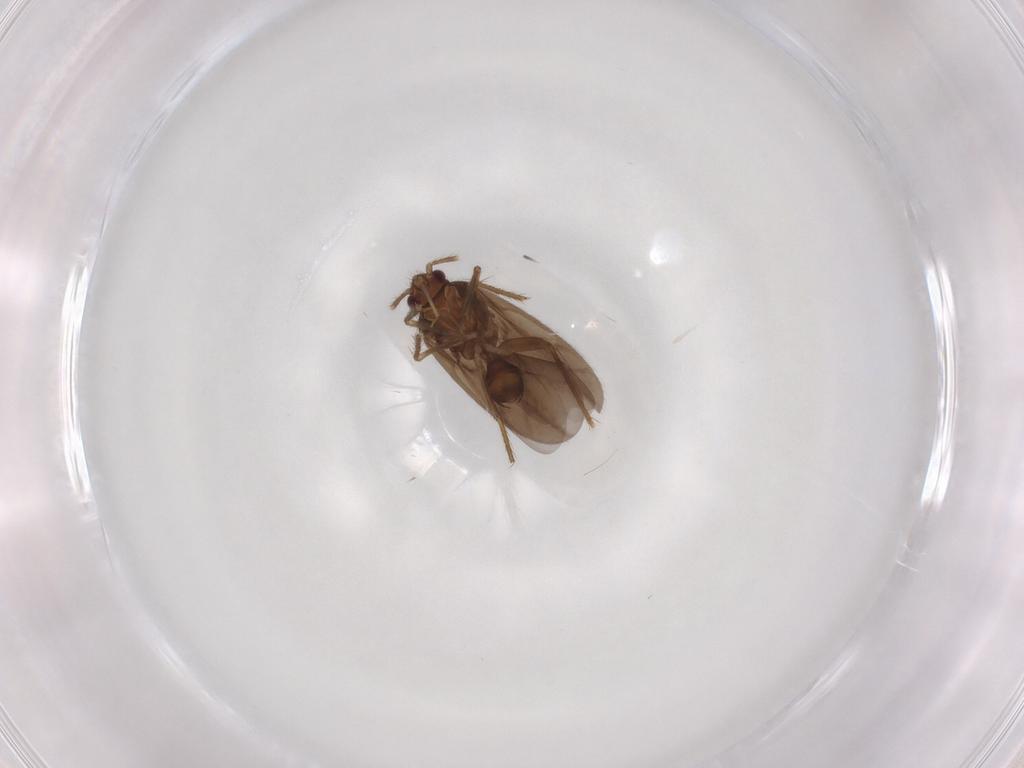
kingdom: Animalia
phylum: Arthropoda
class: Insecta
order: Hemiptera
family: Ceratocombidae
